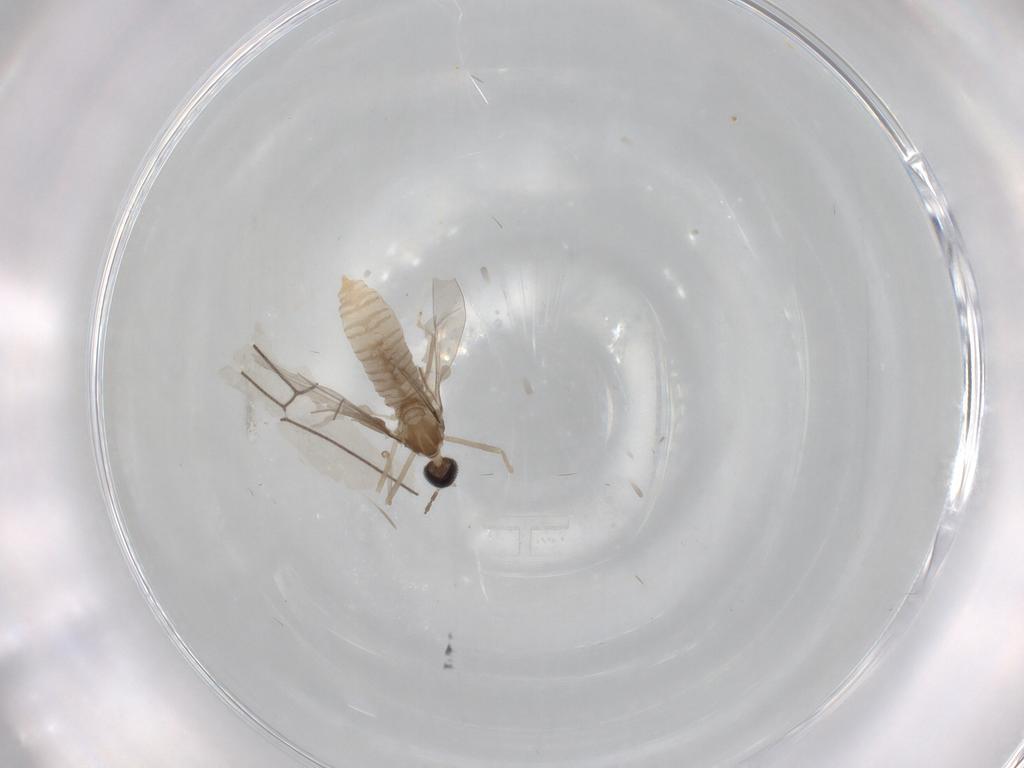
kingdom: Animalia
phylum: Arthropoda
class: Insecta
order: Diptera
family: Cecidomyiidae
